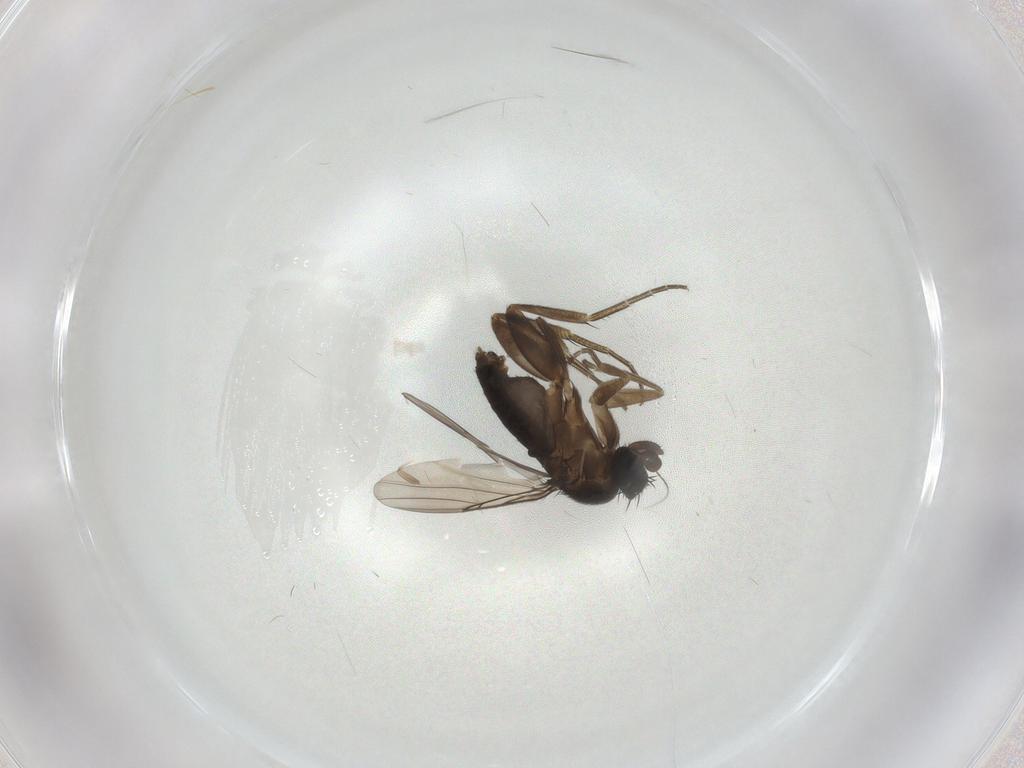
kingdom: Animalia
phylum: Arthropoda
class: Insecta
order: Diptera
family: Phoridae
